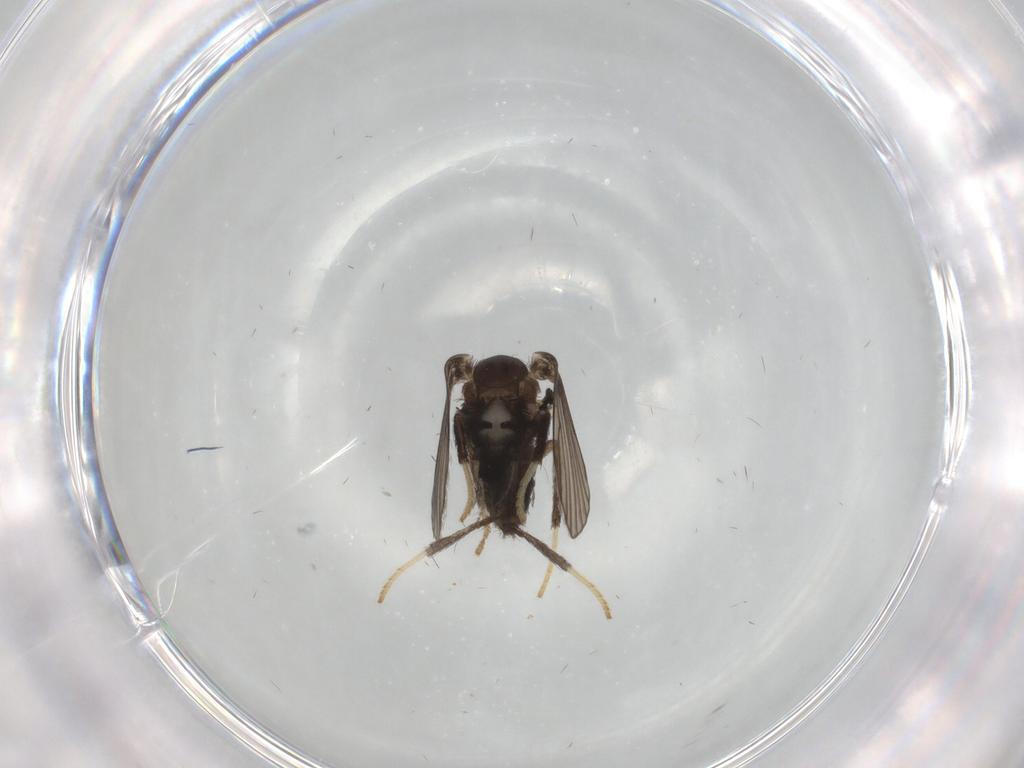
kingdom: Animalia
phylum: Arthropoda
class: Insecta
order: Diptera
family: Psychodidae
